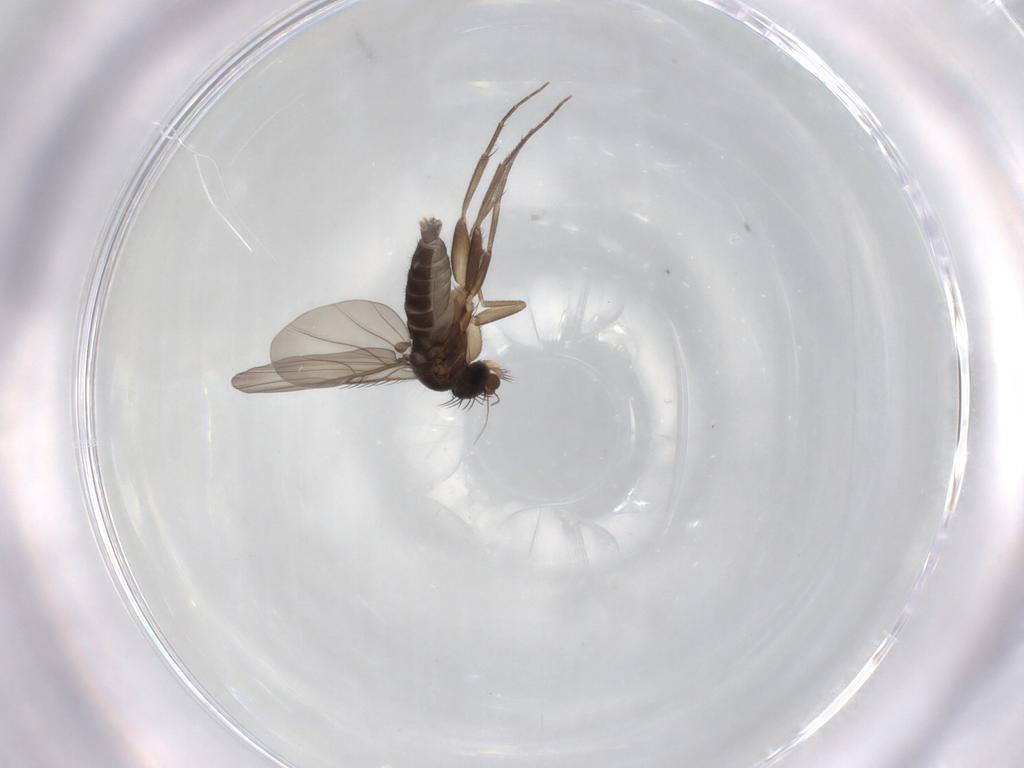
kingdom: Animalia
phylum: Arthropoda
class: Insecta
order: Diptera
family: Phoridae
